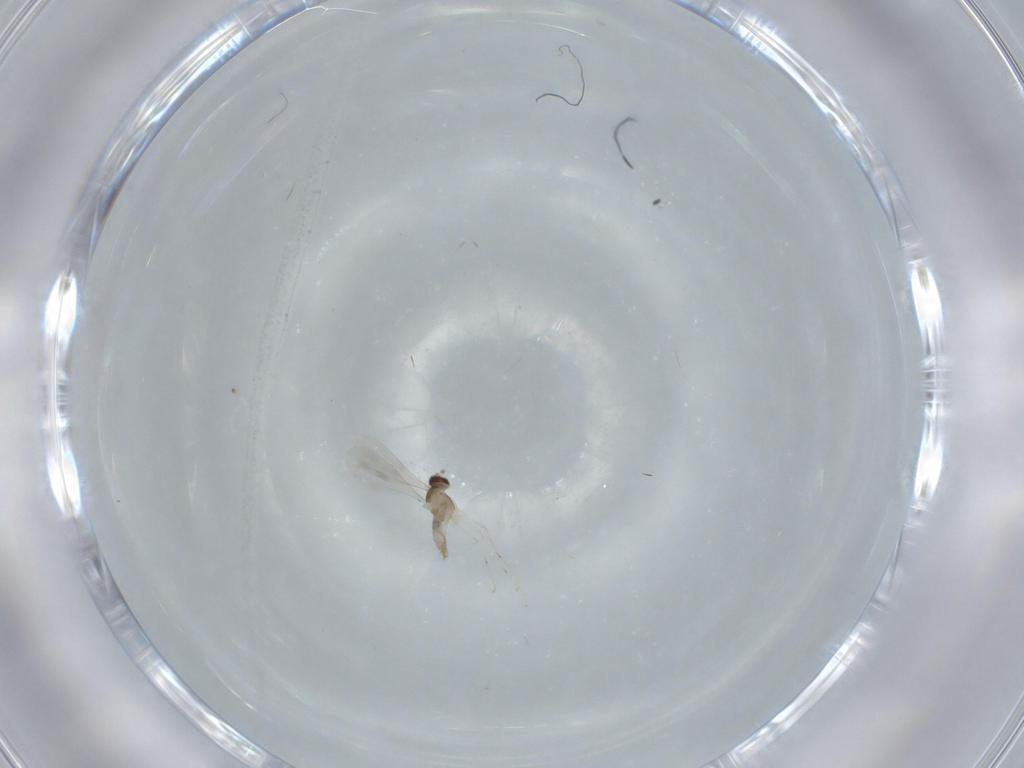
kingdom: Animalia
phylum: Arthropoda
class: Insecta
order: Diptera
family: Cecidomyiidae
